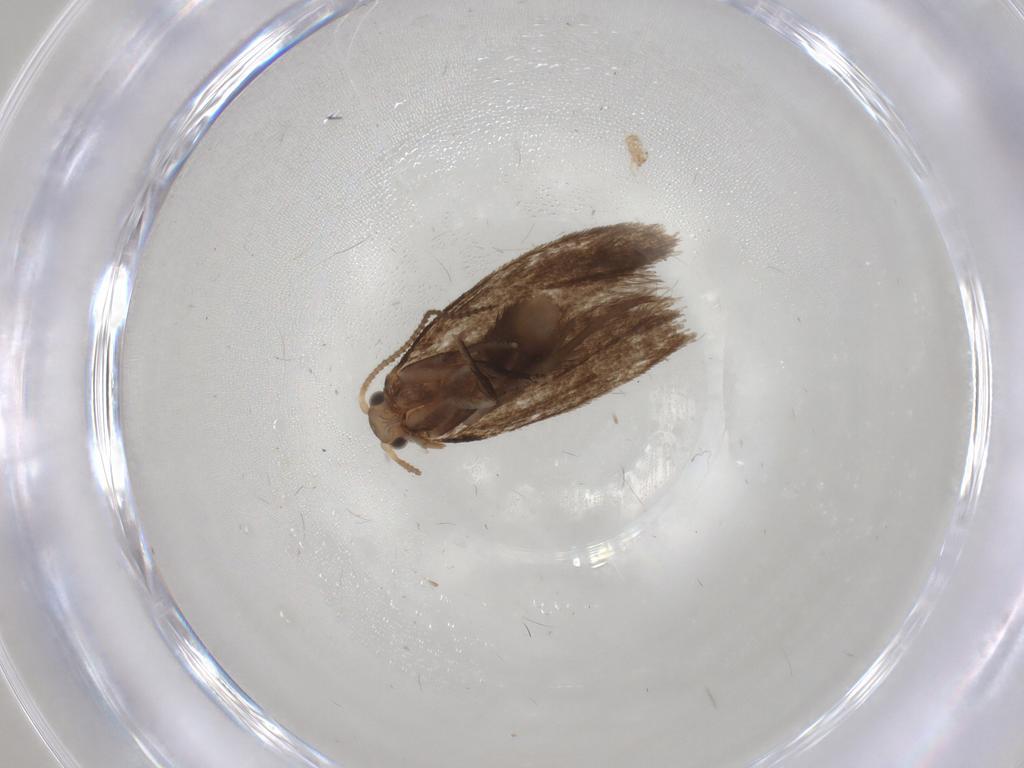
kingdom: Animalia
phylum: Arthropoda
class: Insecta
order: Lepidoptera
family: Dryadaulidae
